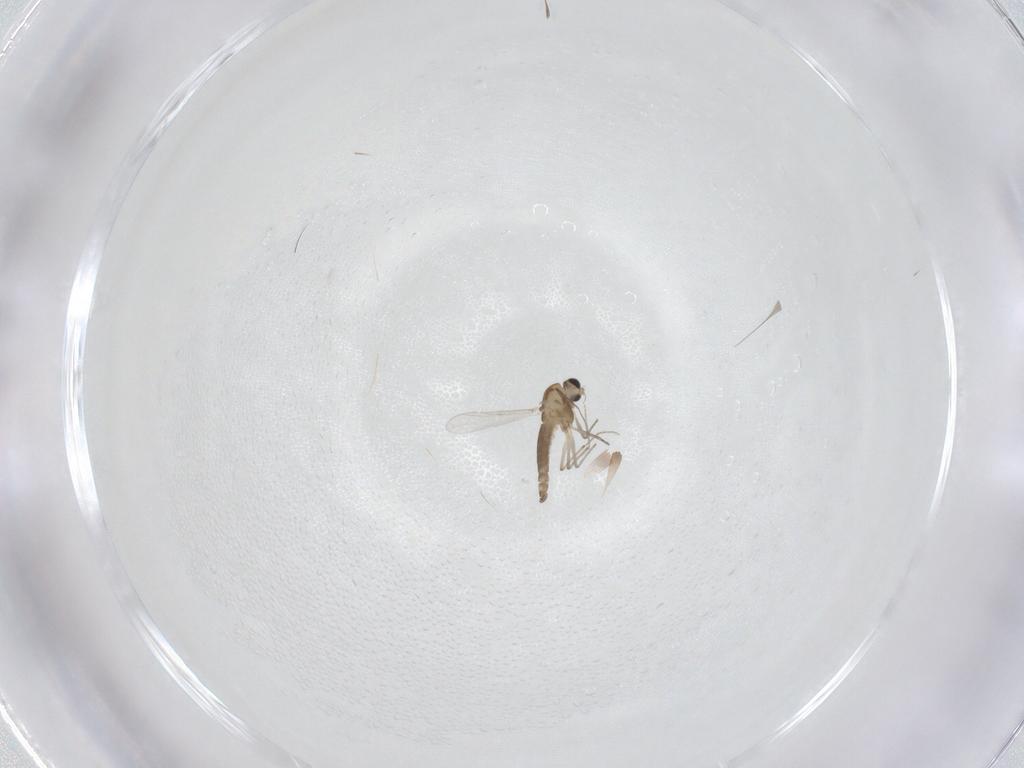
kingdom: Animalia
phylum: Arthropoda
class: Insecta
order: Diptera
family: Chironomidae
